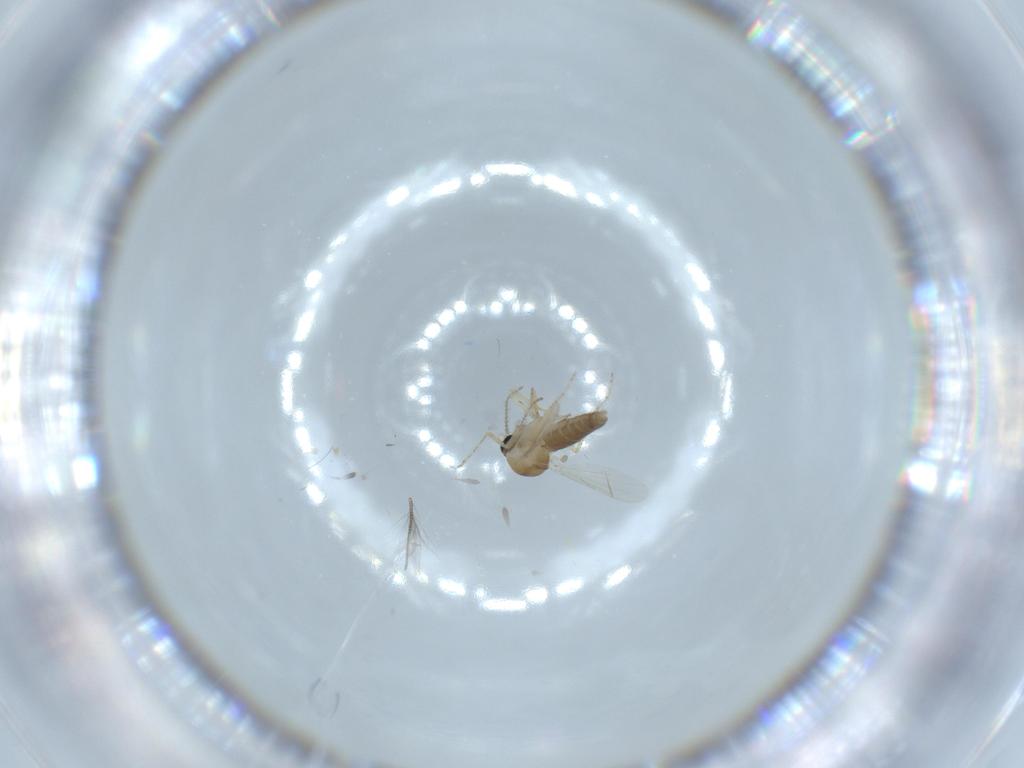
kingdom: Animalia
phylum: Arthropoda
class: Insecta
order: Diptera
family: Ceratopogonidae
